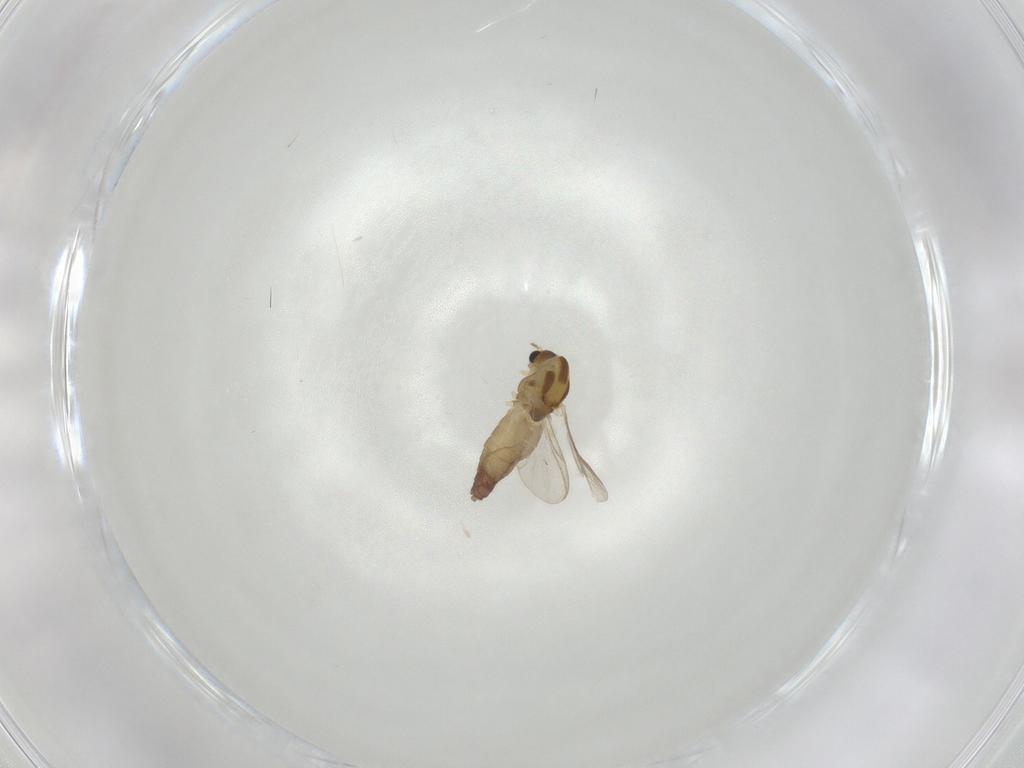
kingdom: Animalia
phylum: Arthropoda
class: Insecta
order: Diptera
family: Chironomidae
